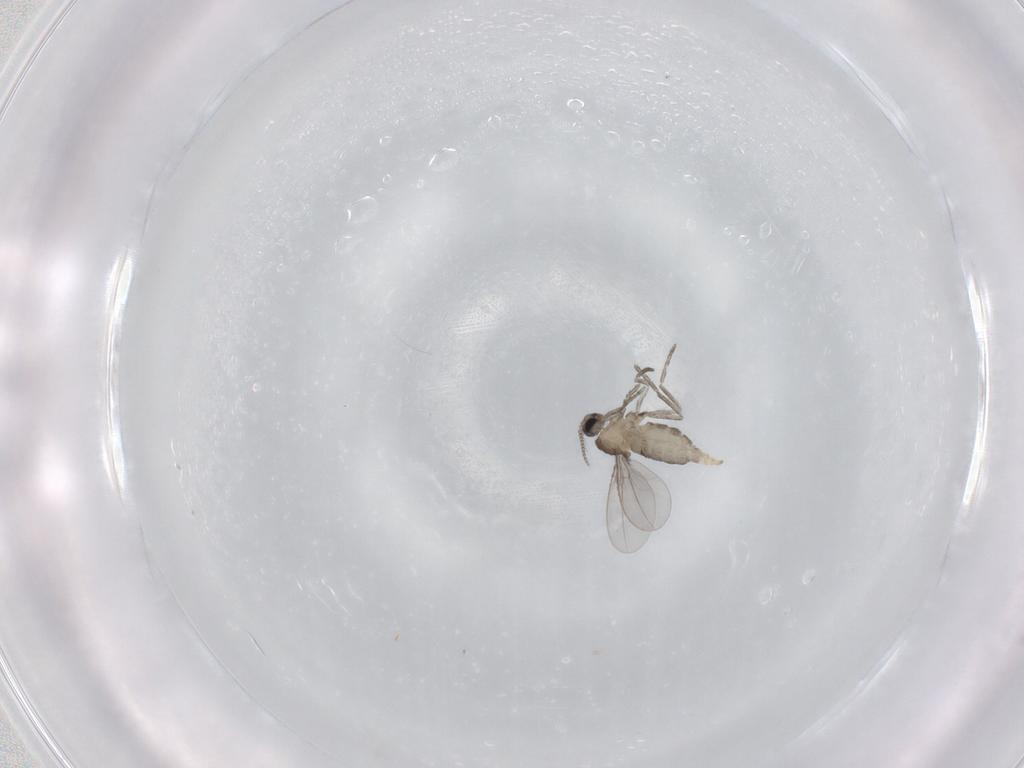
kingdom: Animalia
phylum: Arthropoda
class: Insecta
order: Diptera
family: Cecidomyiidae
